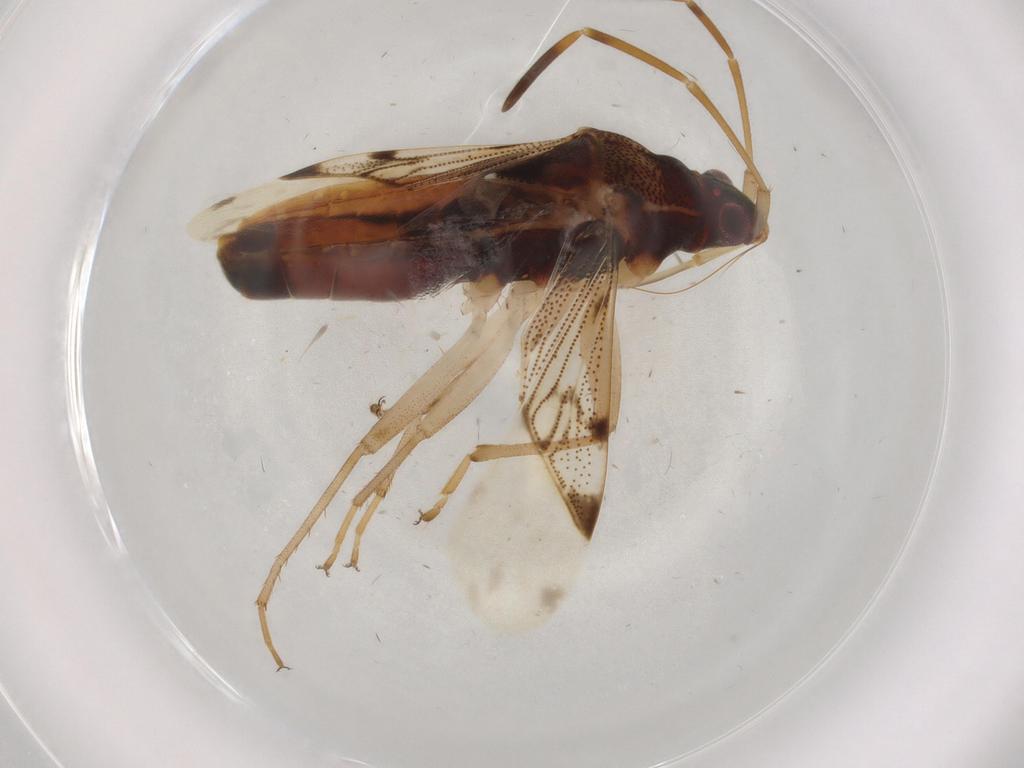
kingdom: Animalia
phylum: Arthropoda
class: Insecta
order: Hemiptera
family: Rhyparochromidae
